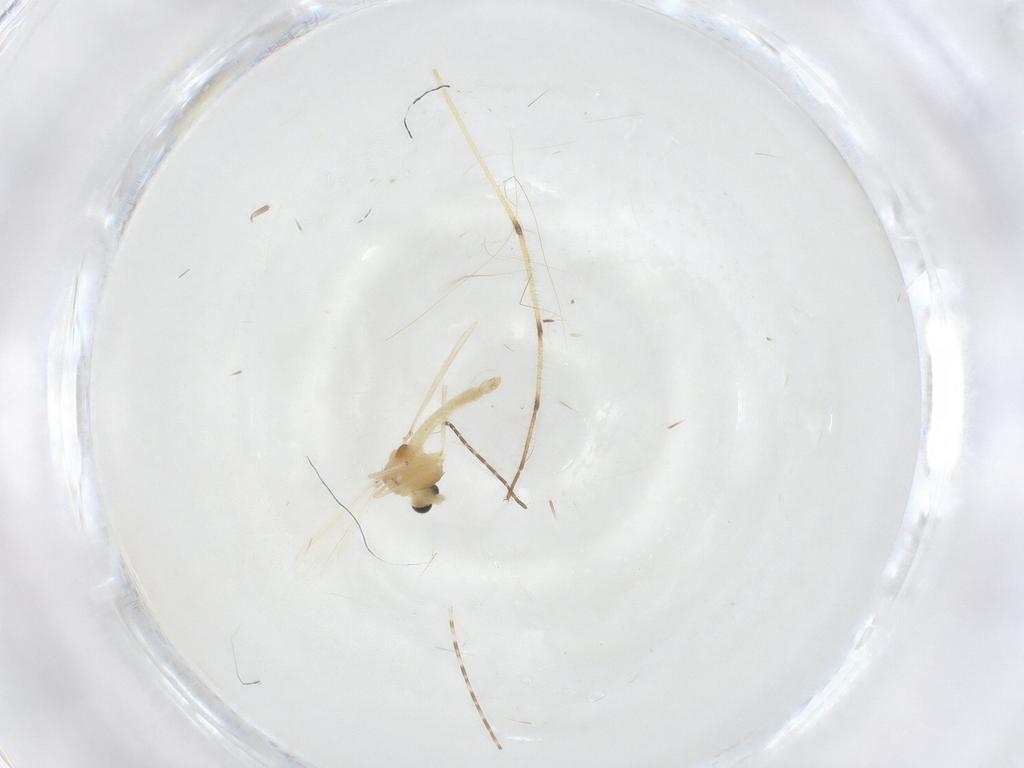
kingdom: Animalia
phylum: Arthropoda
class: Insecta
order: Diptera
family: Chironomidae
